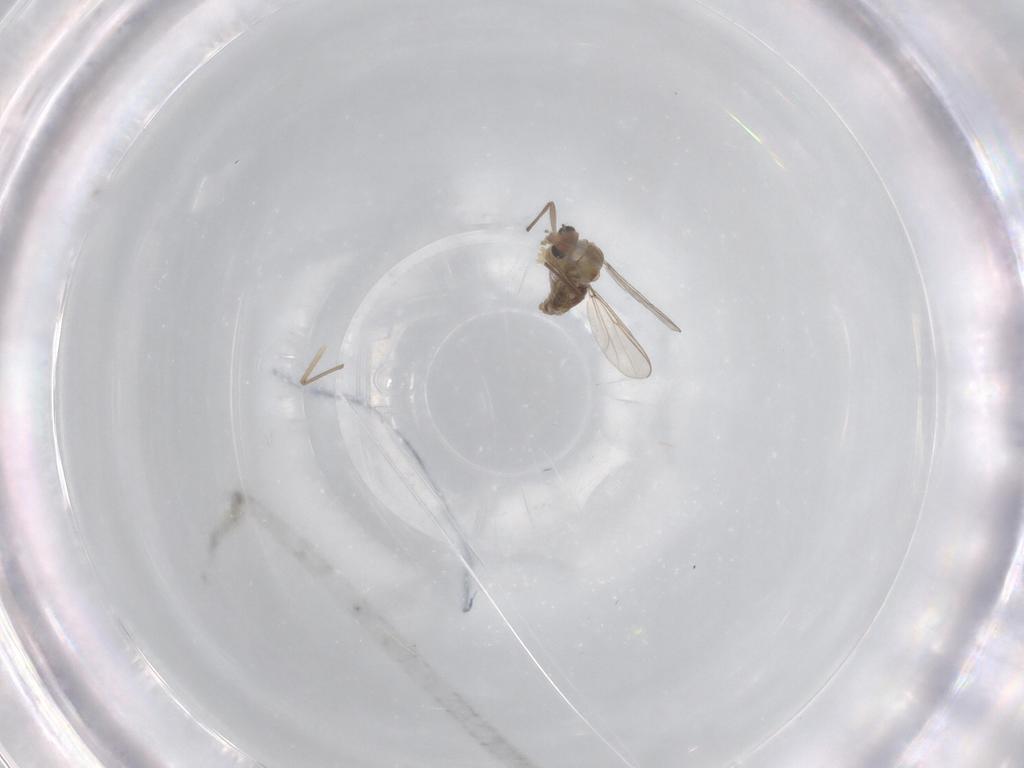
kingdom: Animalia
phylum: Arthropoda
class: Insecta
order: Diptera
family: Chironomidae
